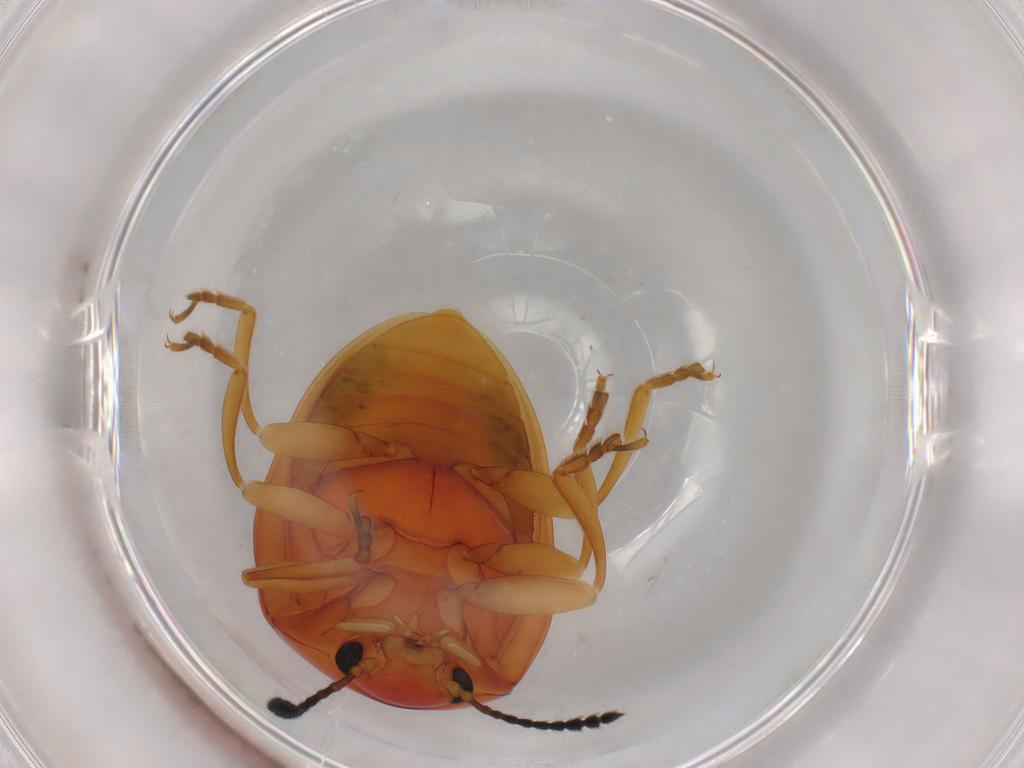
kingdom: Animalia
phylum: Arthropoda
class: Insecta
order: Coleoptera
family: Erotylidae
